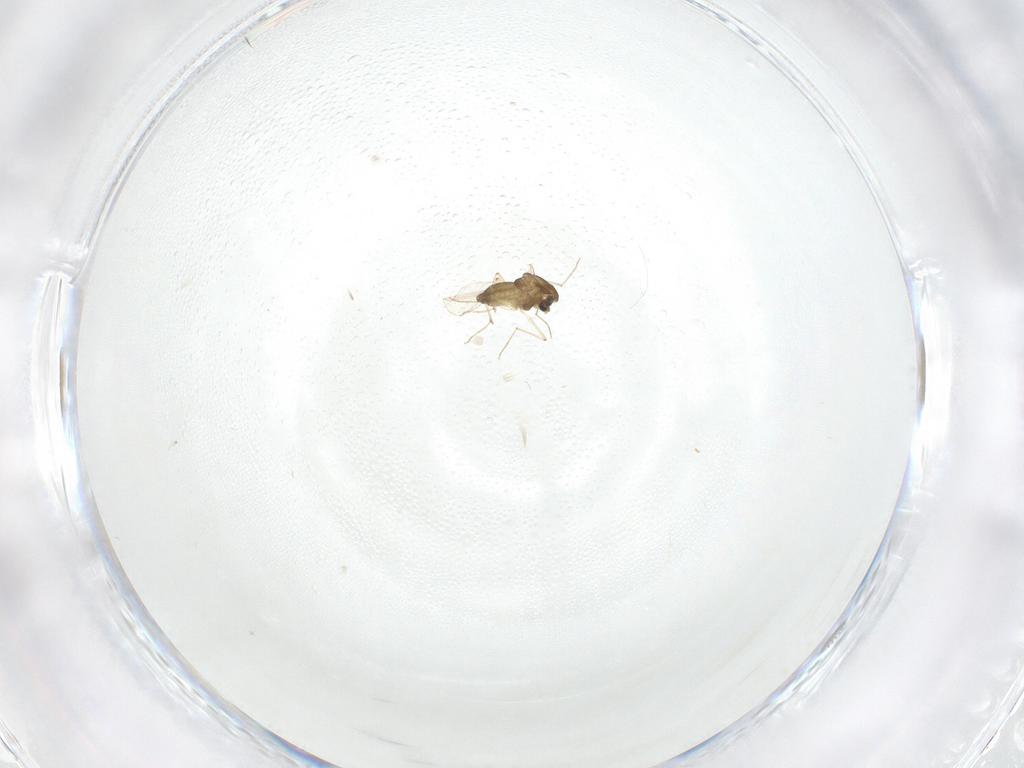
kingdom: Animalia
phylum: Arthropoda
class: Insecta
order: Diptera
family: Chironomidae
